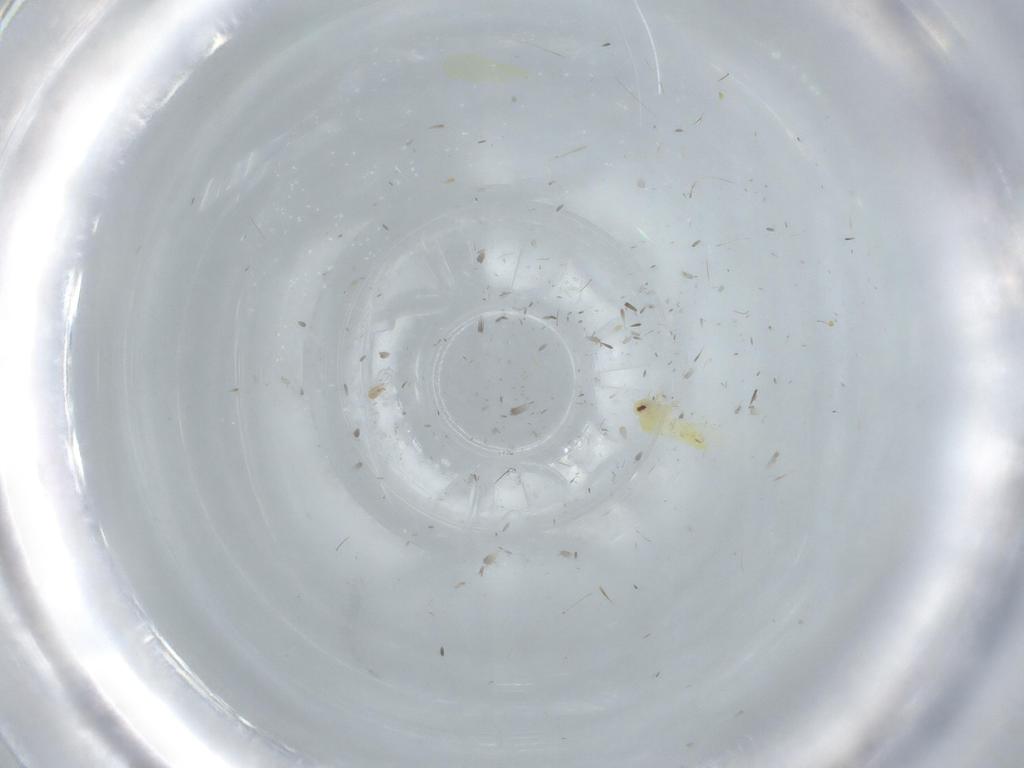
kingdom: Animalia
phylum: Arthropoda
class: Insecta
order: Hemiptera
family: Aleyrodidae
